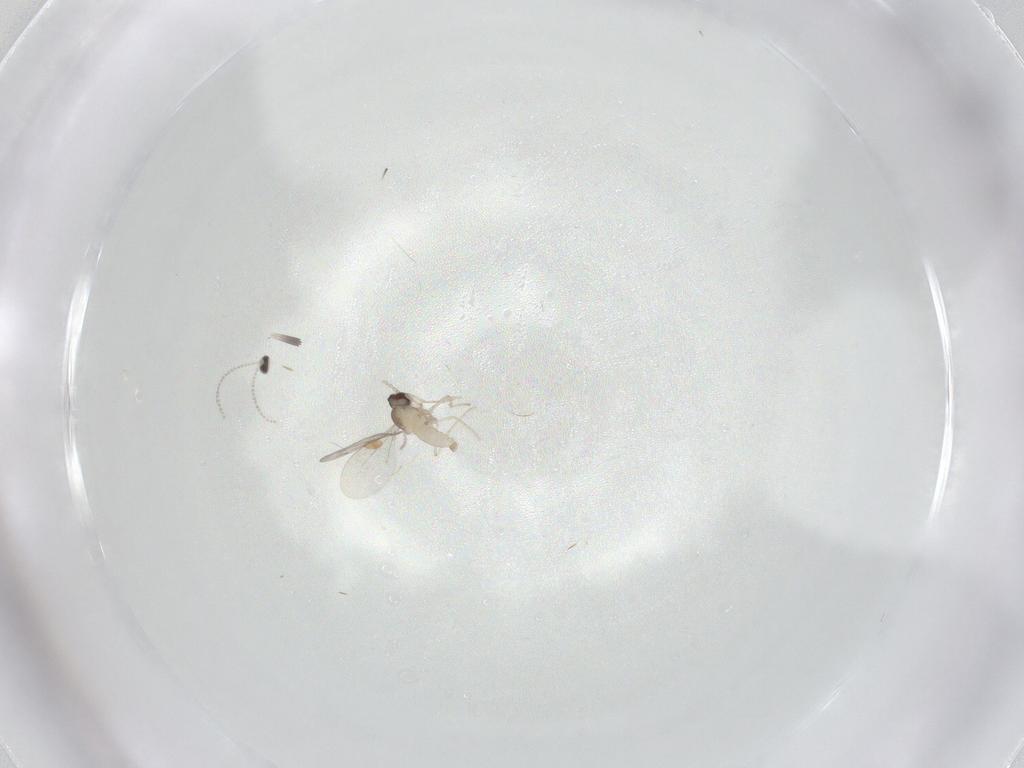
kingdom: Animalia
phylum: Arthropoda
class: Insecta
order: Diptera
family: Cecidomyiidae
